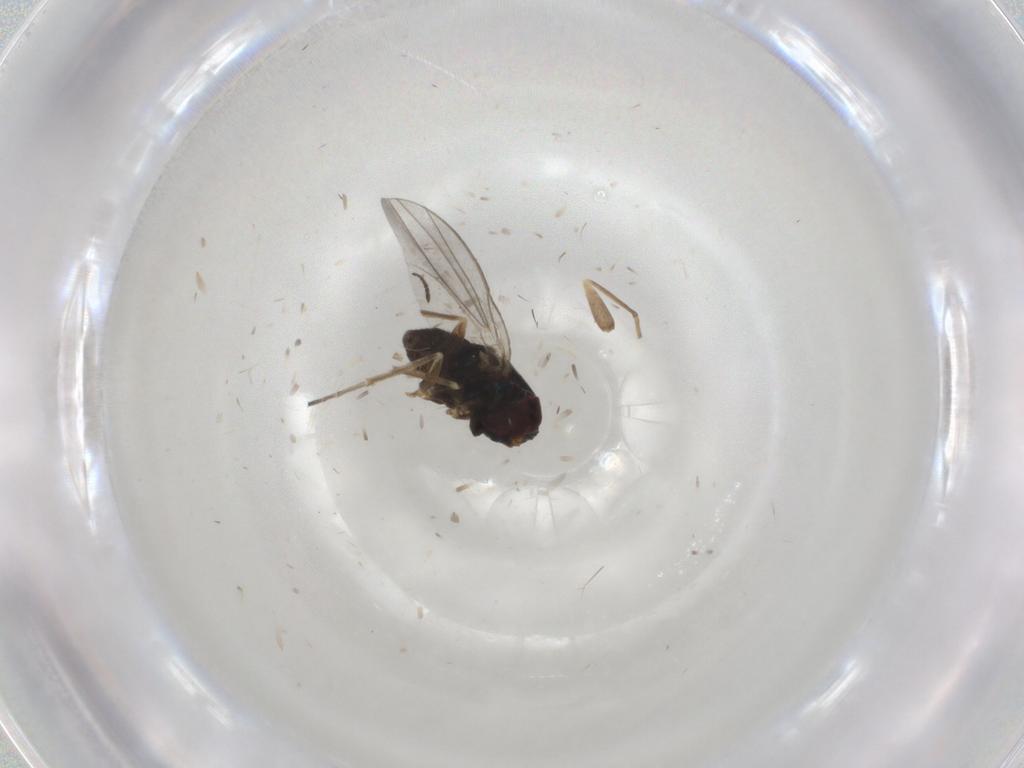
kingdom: Animalia
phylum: Arthropoda
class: Insecta
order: Diptera
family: Dolichopodidae
